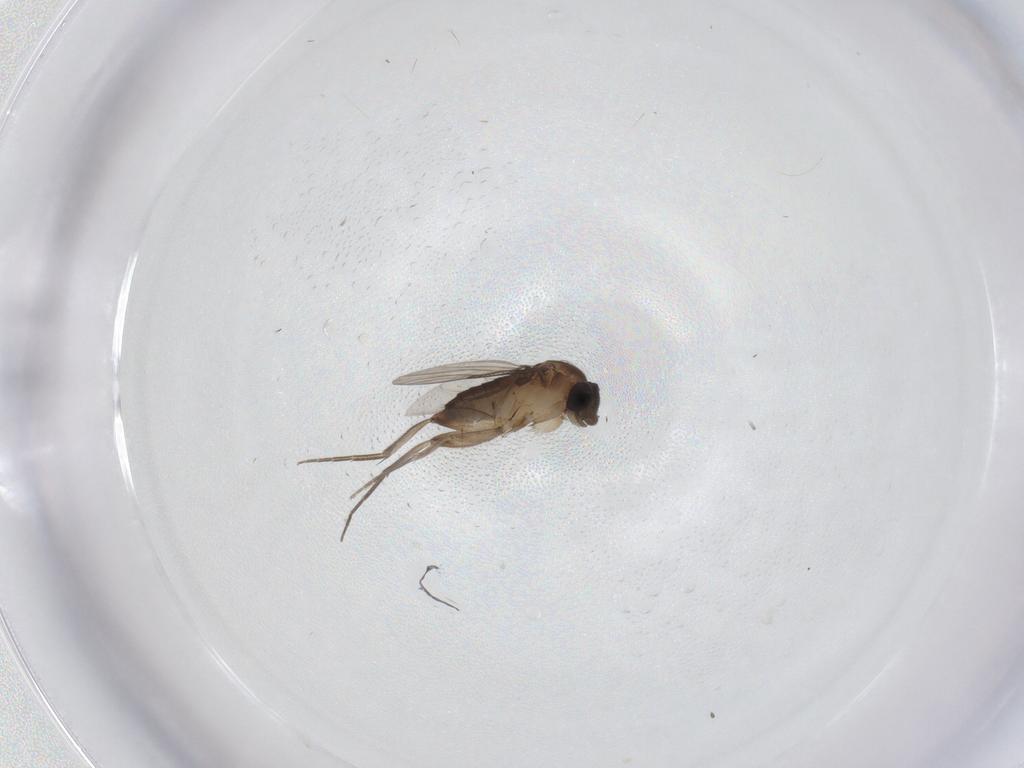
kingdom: Animalia
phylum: Arthropoda
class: Insecta
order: Diptera
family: Phoridae
